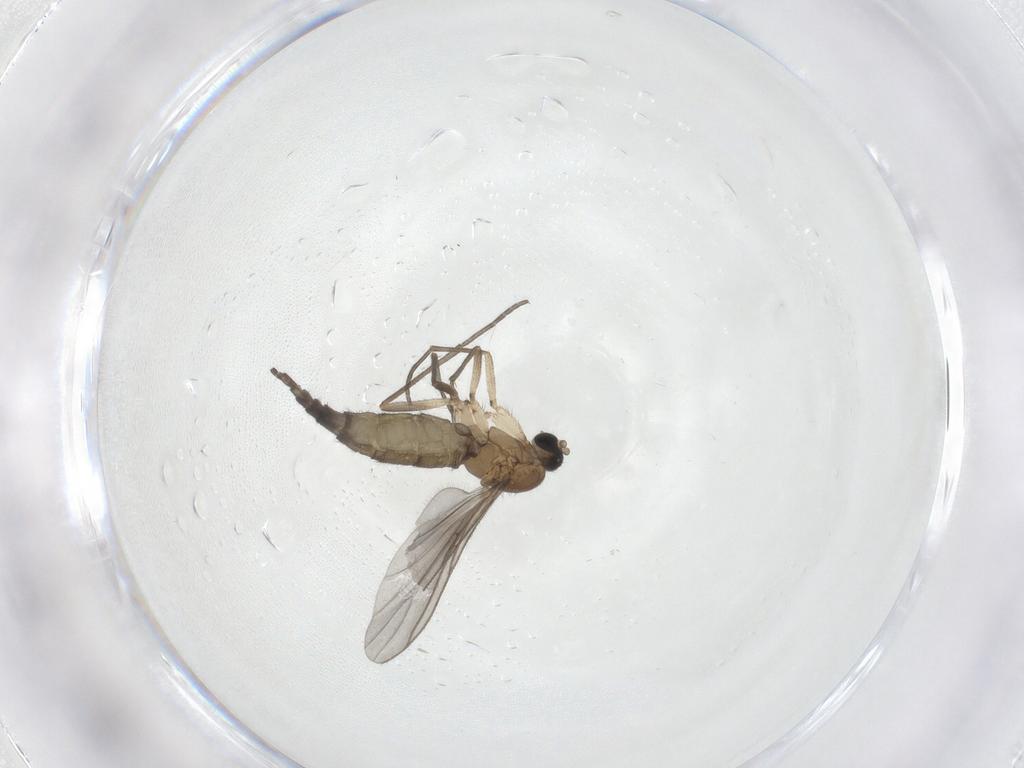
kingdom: Animalia
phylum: Arthropoda
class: Insecta
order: Diptera
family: Sciaridae
